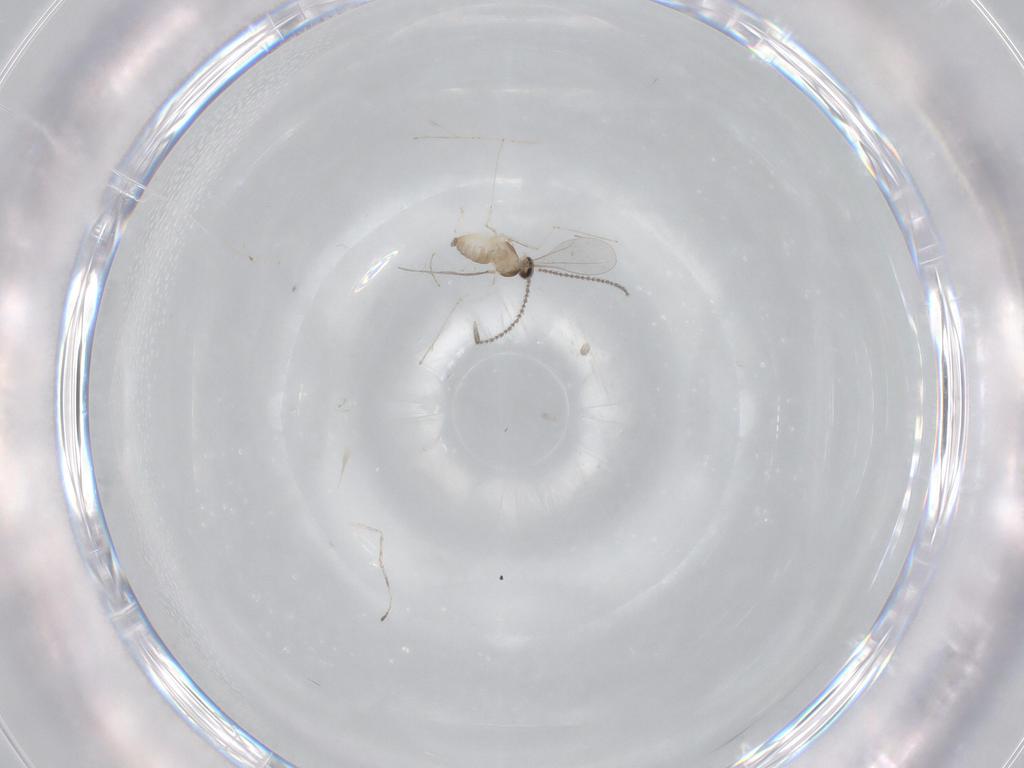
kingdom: Animalia
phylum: Arthropoda
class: Insecta
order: Diptera
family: Cecidomyiidae
